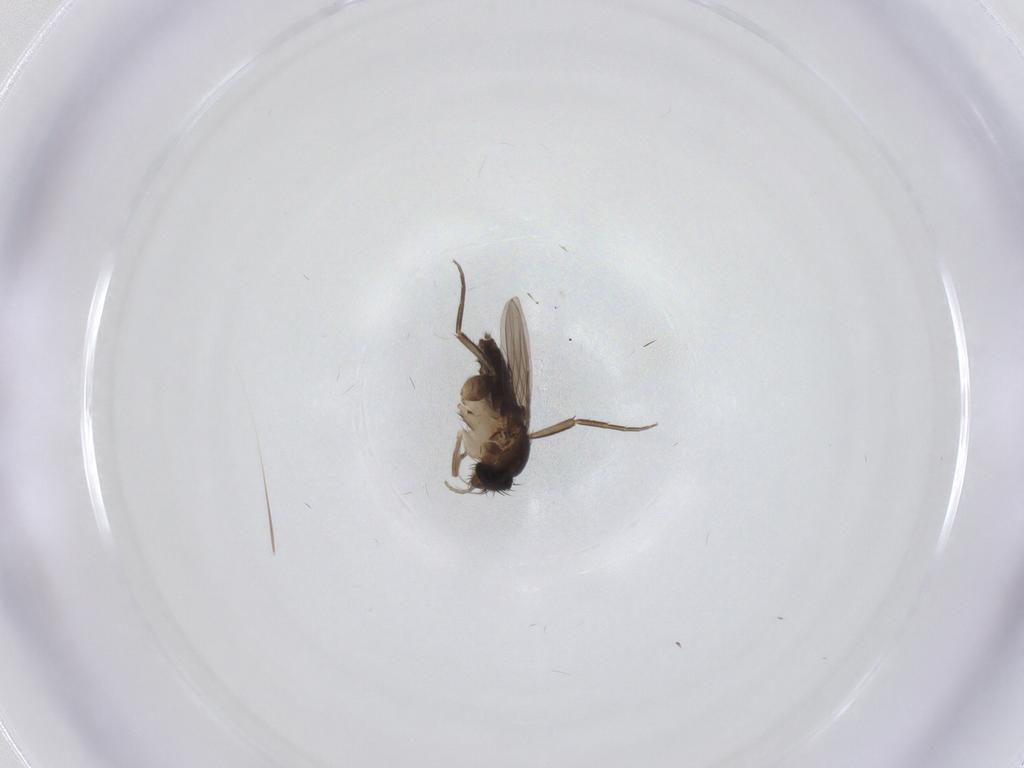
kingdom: Animalia
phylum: Arthropoda
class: Insecta
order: Diptera
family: Phoridae
